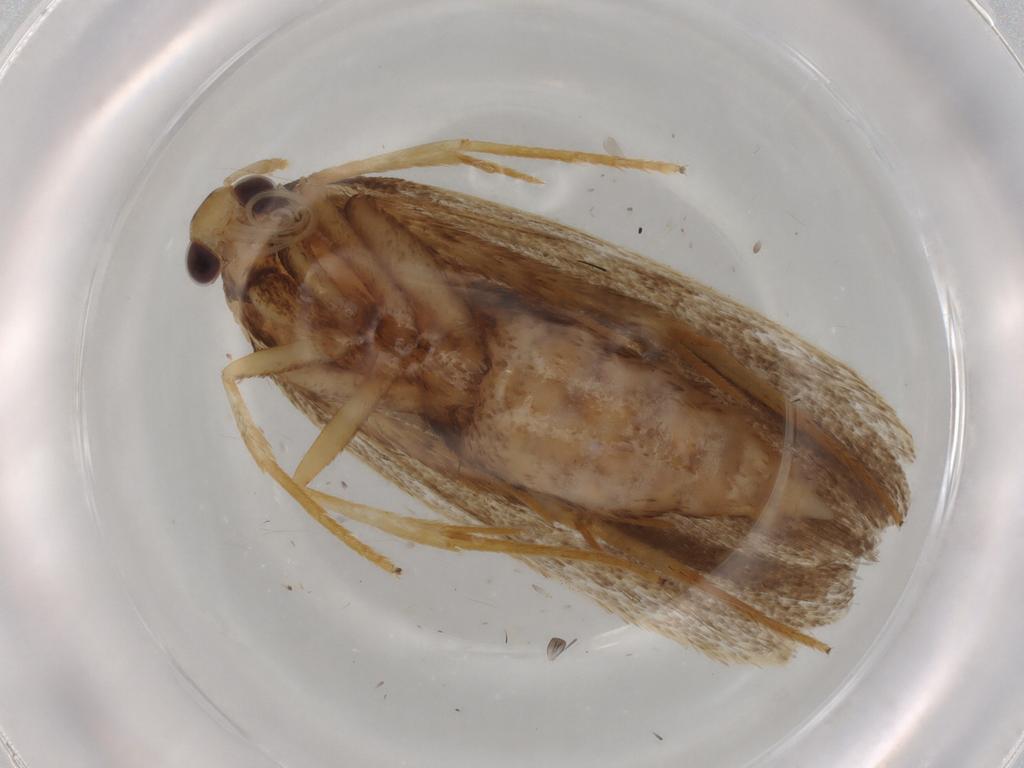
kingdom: Animalia
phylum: Arthropoda
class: Insecta
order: Lepidoptera
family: Lecithoceridae
